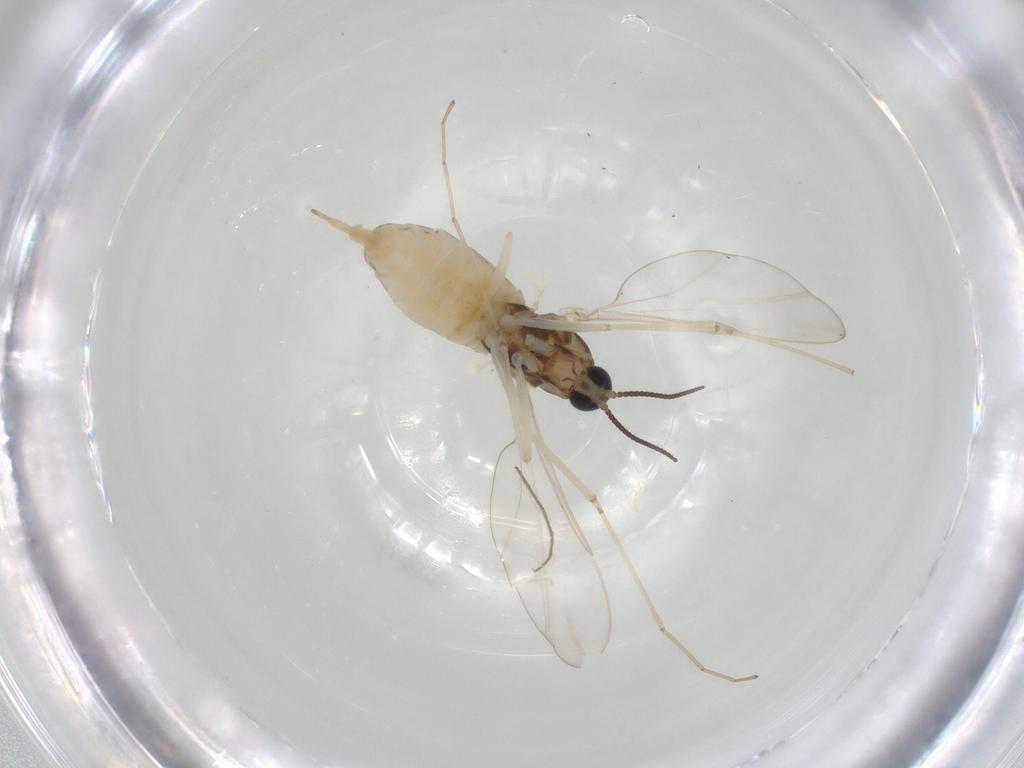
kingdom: Animalia
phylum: Arthropoda
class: Insecta
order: Diptera
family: Cecidomyiidae
